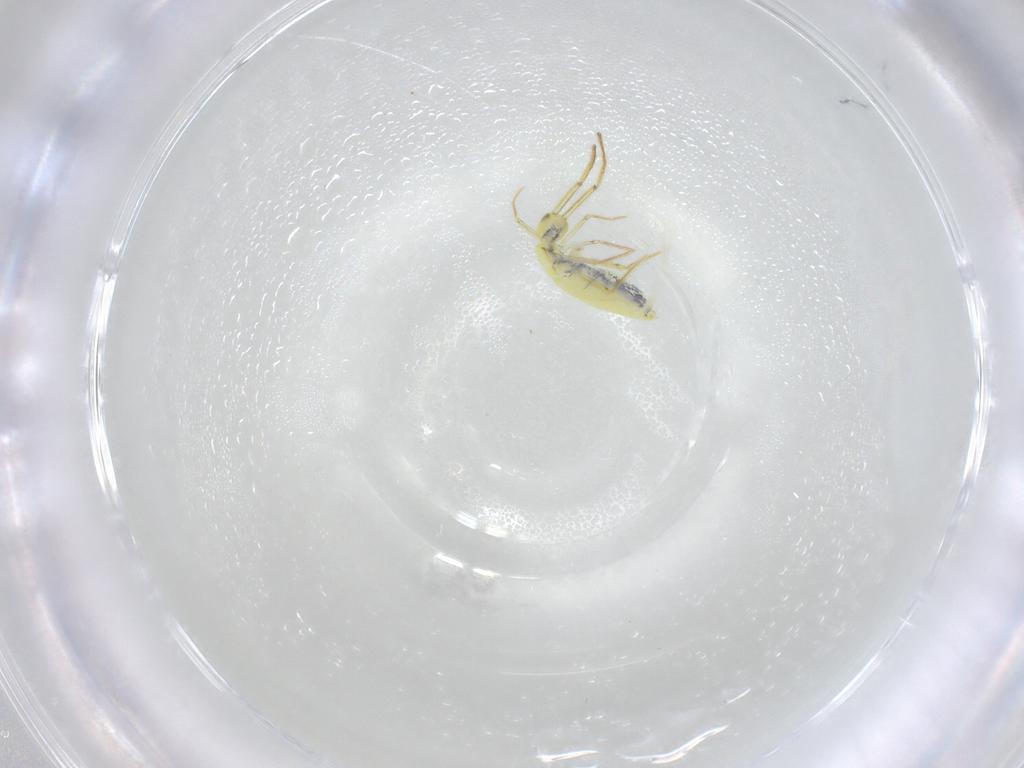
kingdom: Animalia
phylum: Arthropoda
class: Collembola
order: Entomobryomorpha
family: Entomobryidae
